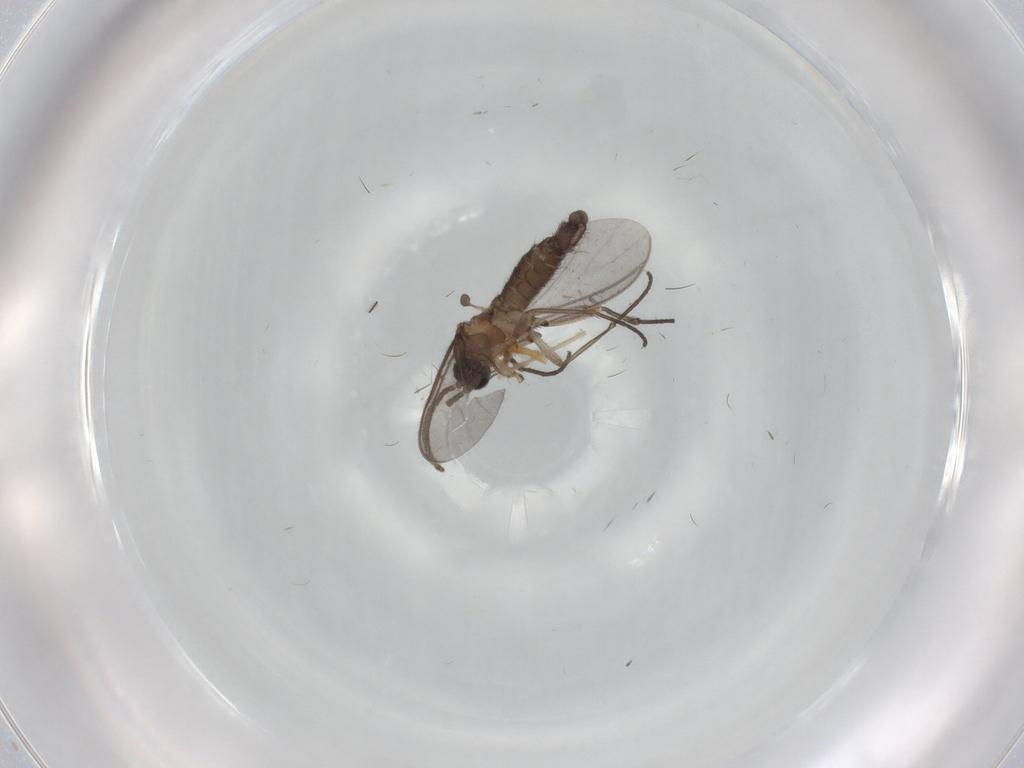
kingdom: Animalia
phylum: Arthropoda
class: Insecta
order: Diptera
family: Chironomidae
